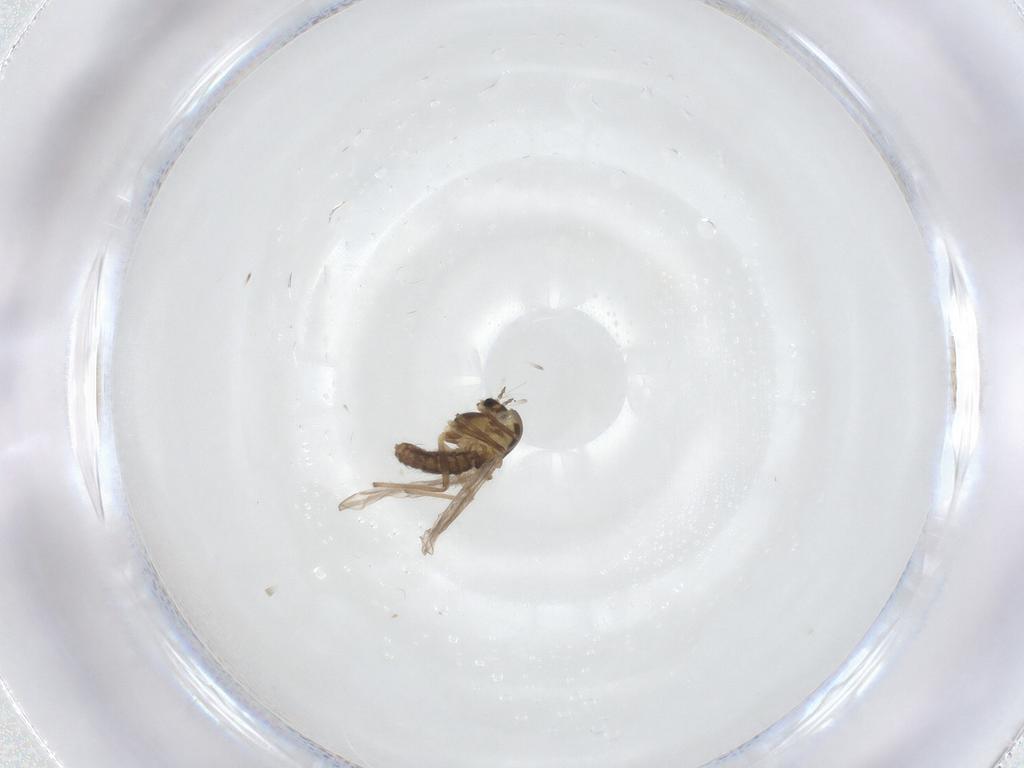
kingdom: Animalia
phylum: Arthropoda
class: Insecta
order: Diptera
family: Chironomidae
